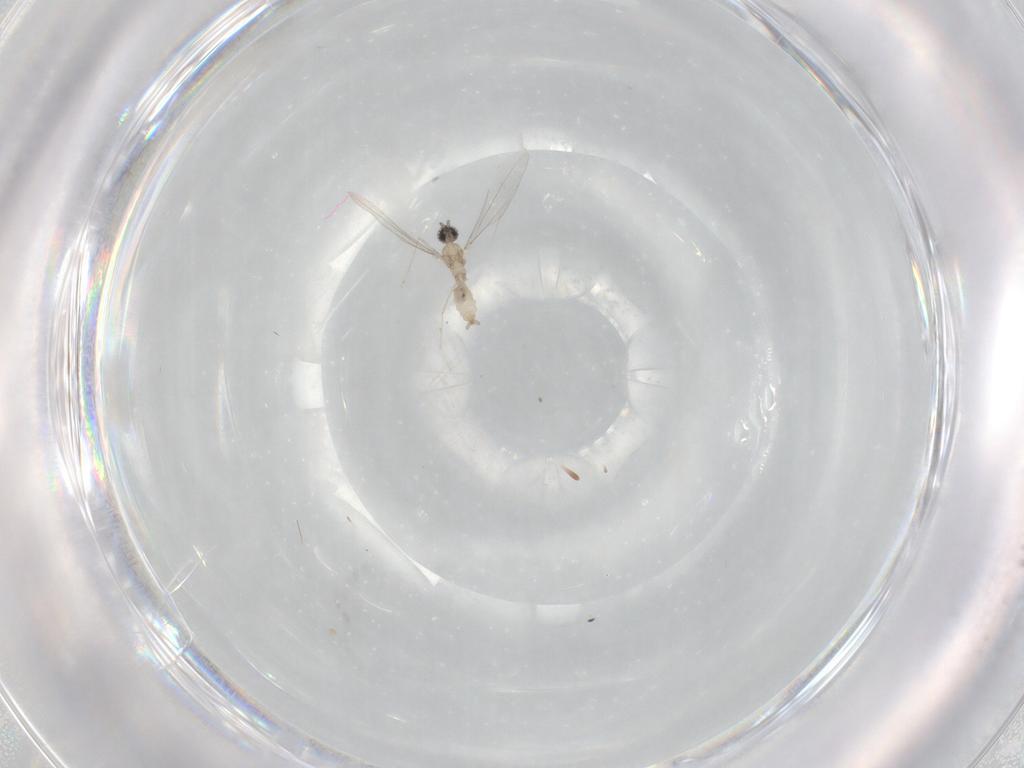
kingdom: Animalia
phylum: Arthropoda
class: Insecta
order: Diptera
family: Cecidomyiidae
